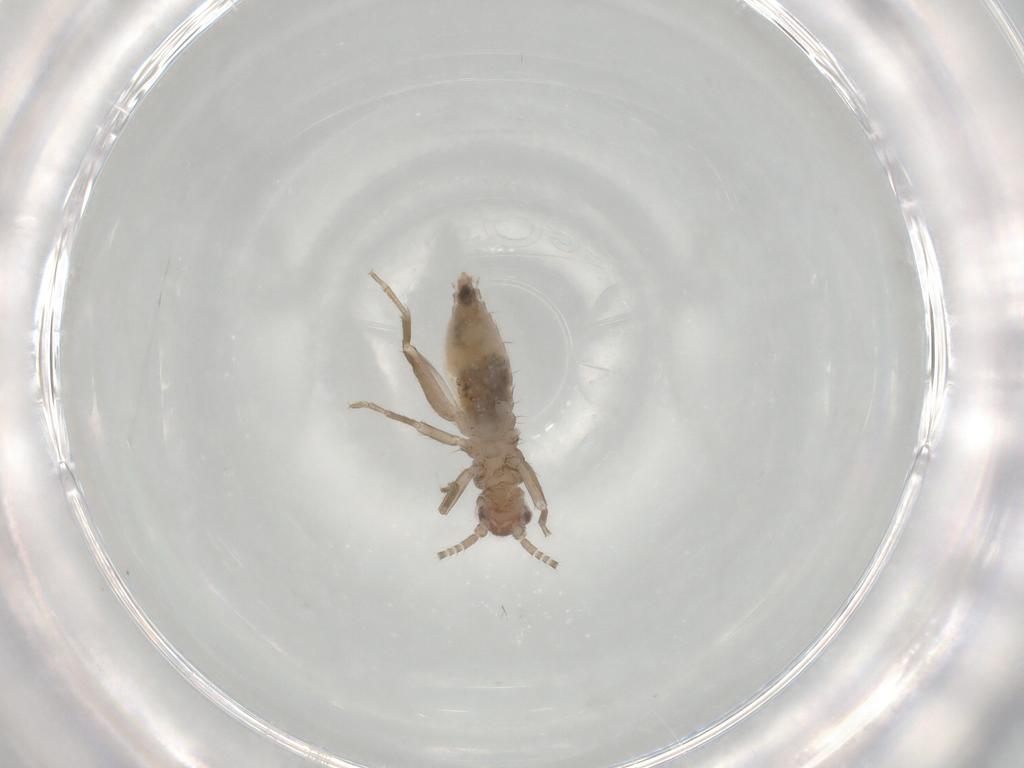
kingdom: Animalia
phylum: Arthropoda
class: Insecta
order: Orthoptera
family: Mogoplistidae
